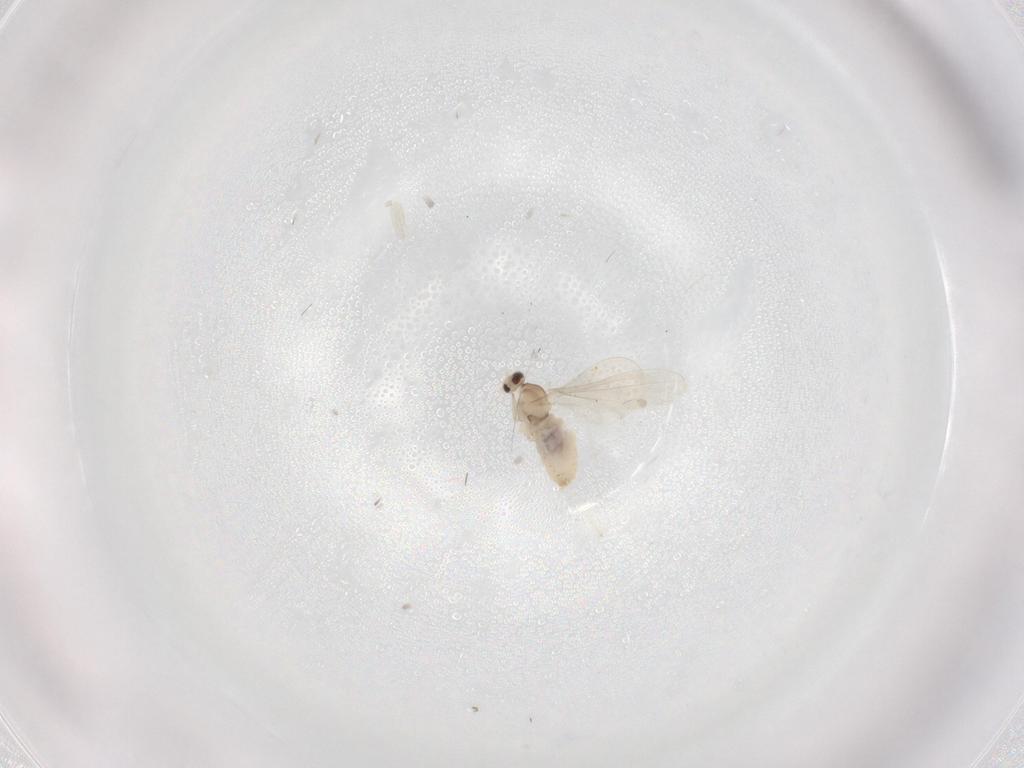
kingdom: Animalia
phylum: Arthropoda
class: Insecta
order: Diptera
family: Cecidomyiidae
